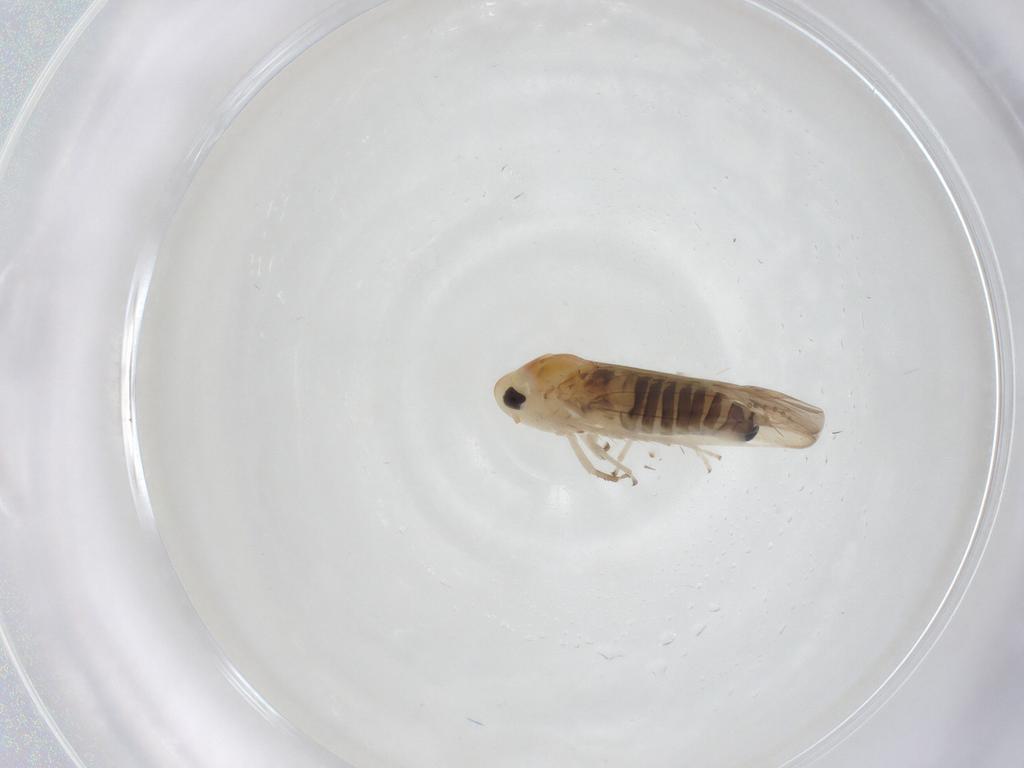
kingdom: Animalia
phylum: Arthropoda
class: Insecta
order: Hemiptera
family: Cicadellidae
